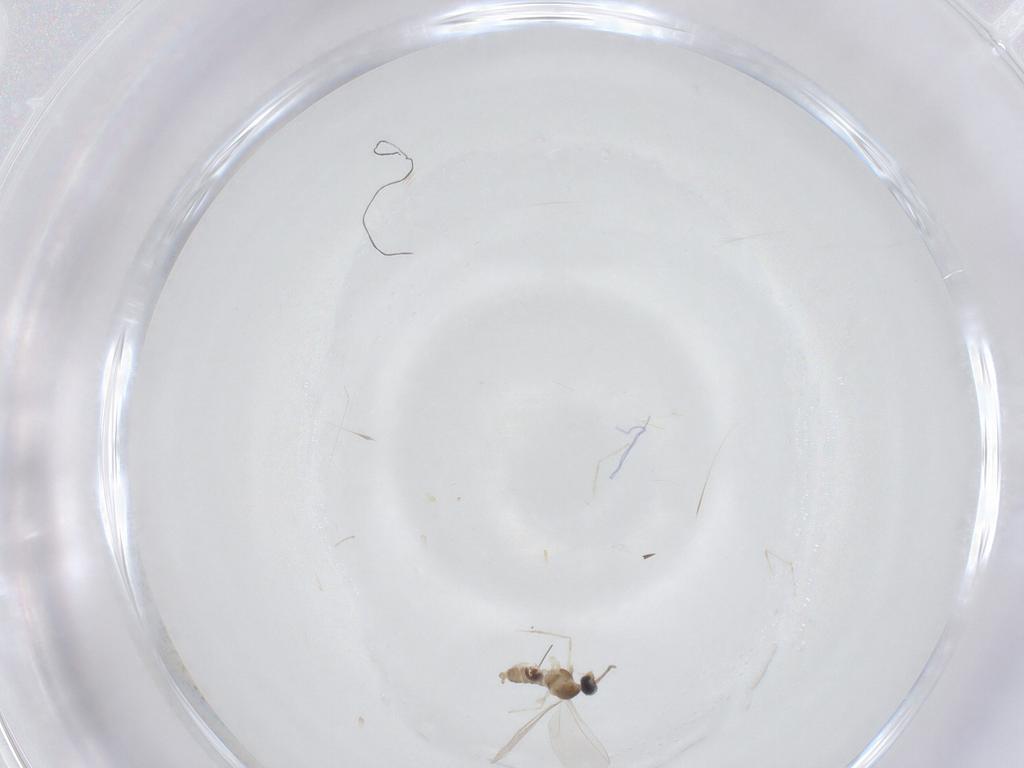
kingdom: Animalia
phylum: Arthropoda
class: Insecta
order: Diptera
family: Cecidomyiidae
